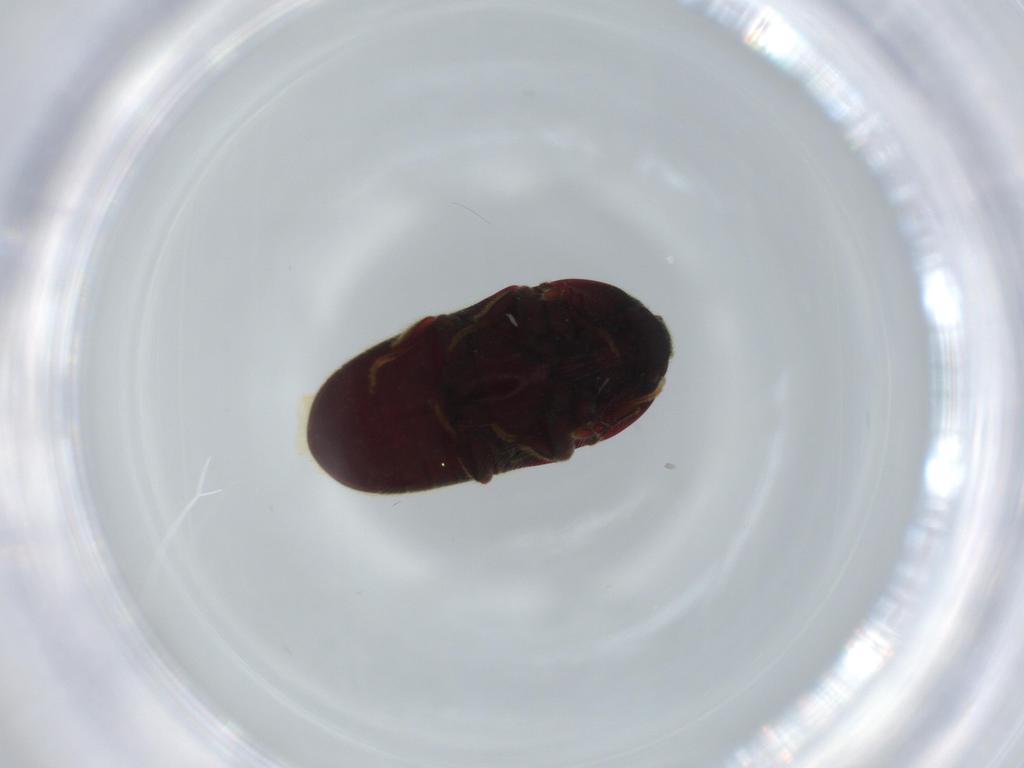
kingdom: Animalia
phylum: Arthropoda
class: Insecta
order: Coleoptera
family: Throscidae
